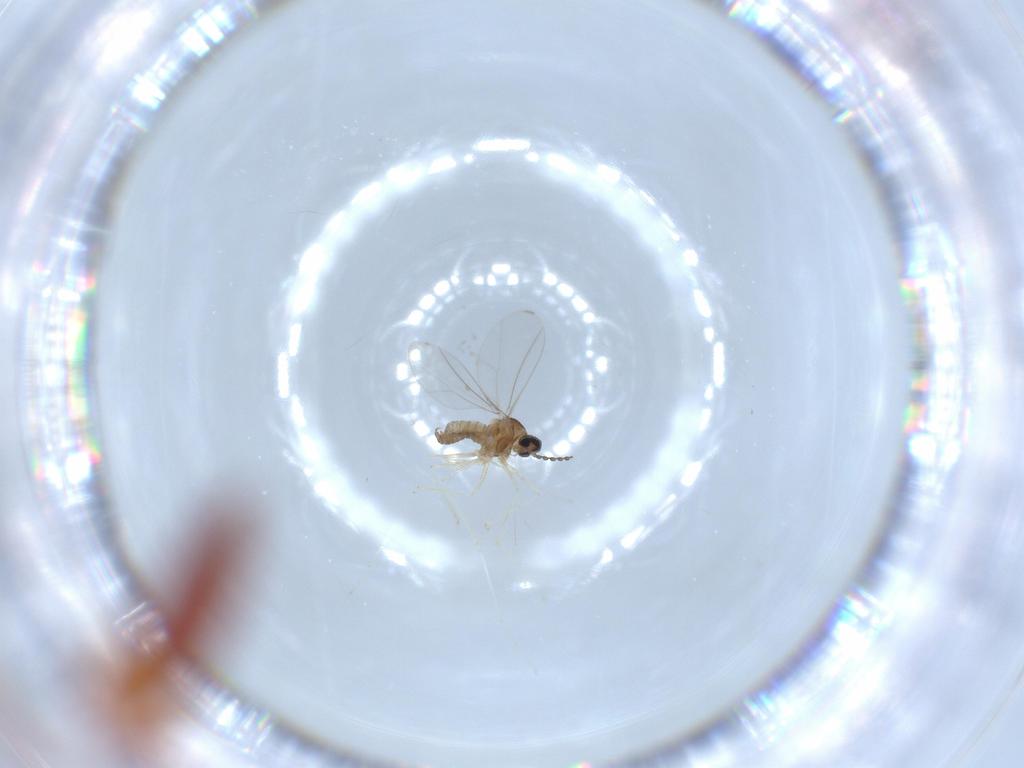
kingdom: Animalia
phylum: Arthropoda
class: Insecta
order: Diptera
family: Cecidomyiidae
